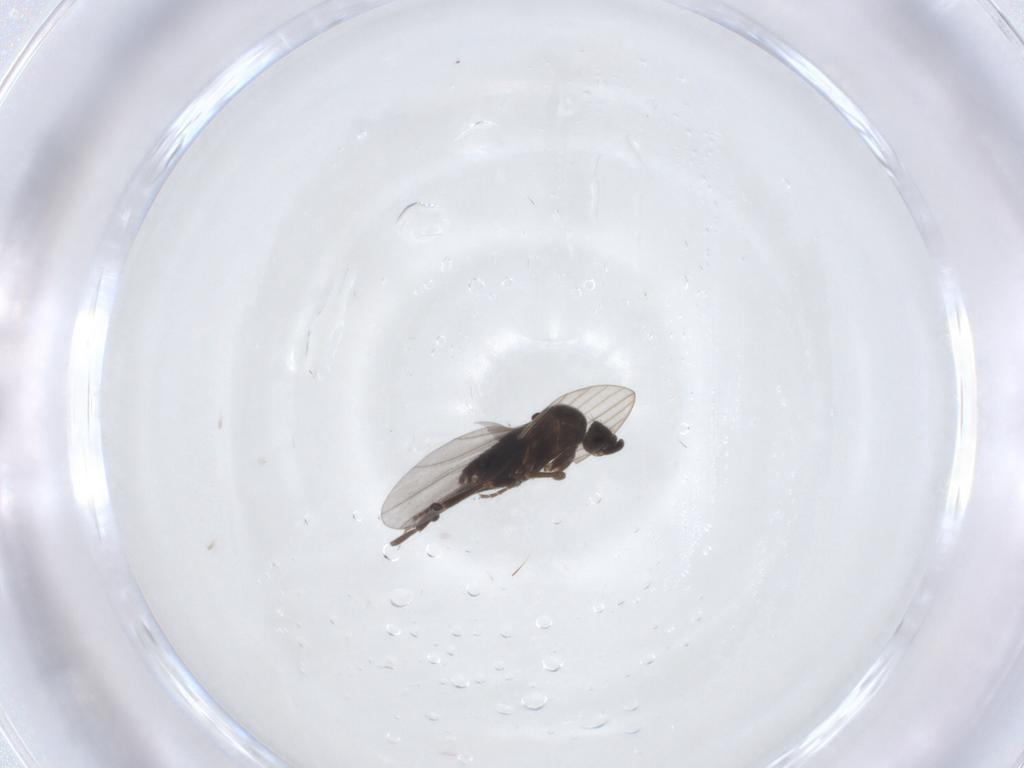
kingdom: Animalia
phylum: Arthropoda
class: Insecta
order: Diptera
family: Psychodidae
